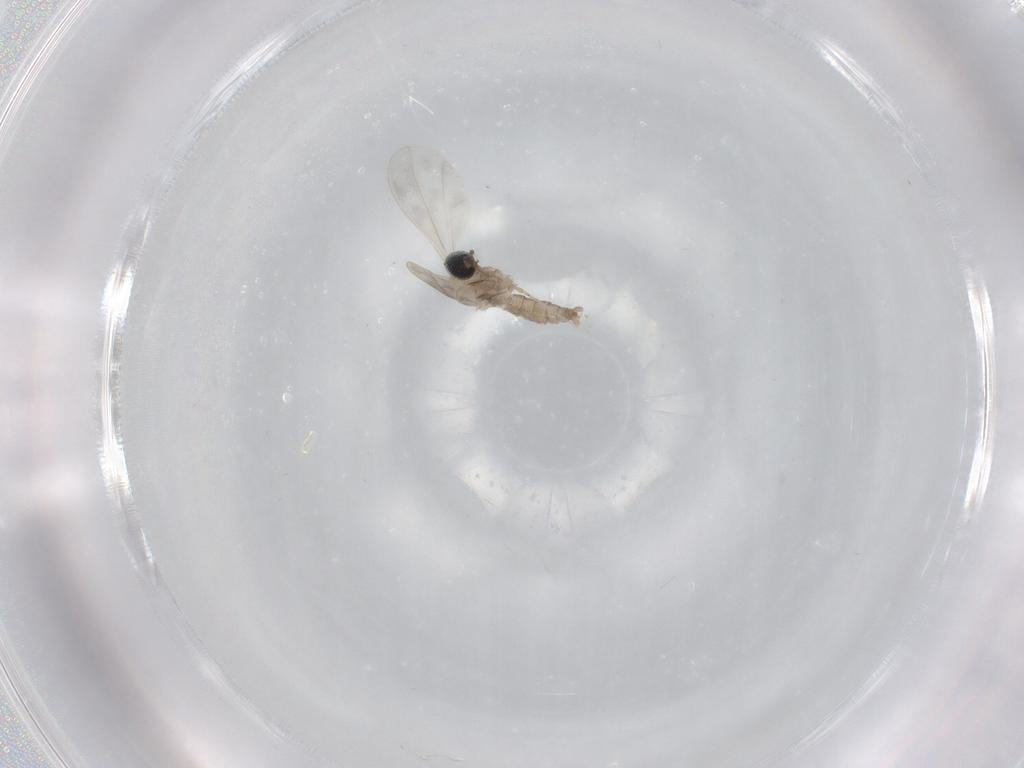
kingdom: Animalia
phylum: Arthropoda
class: Insecta
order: Diptera
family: Cecidomyiidae
